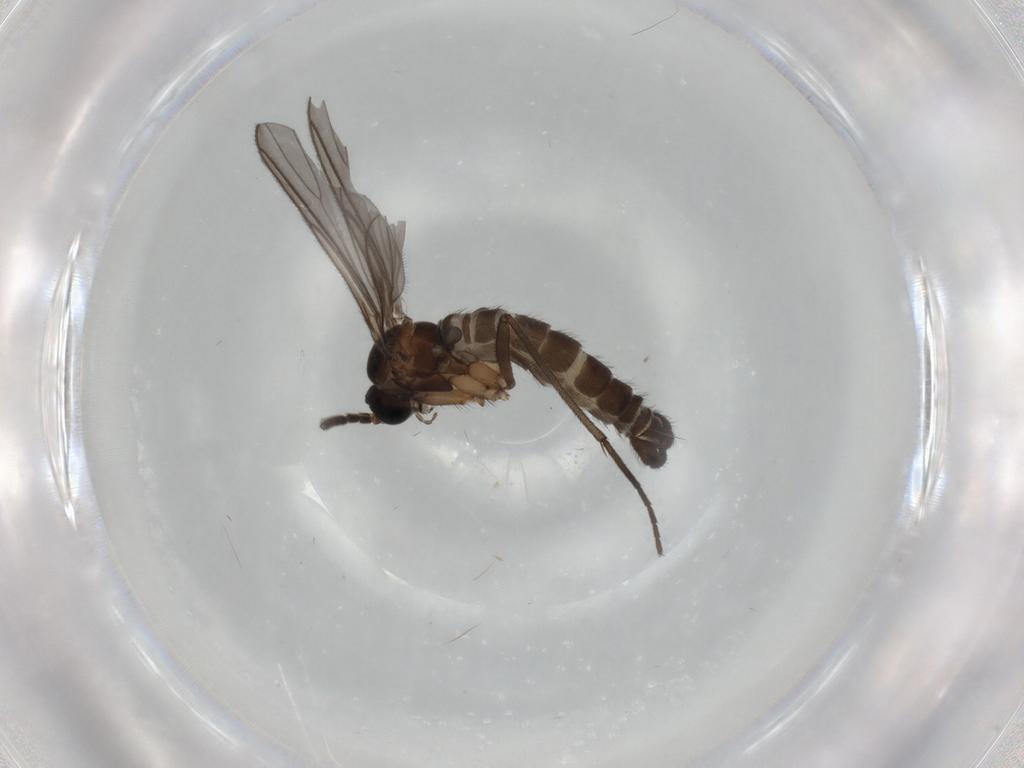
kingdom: Animalia
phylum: Arthropoda
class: Insecta
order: Diptera
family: Sciaridae
